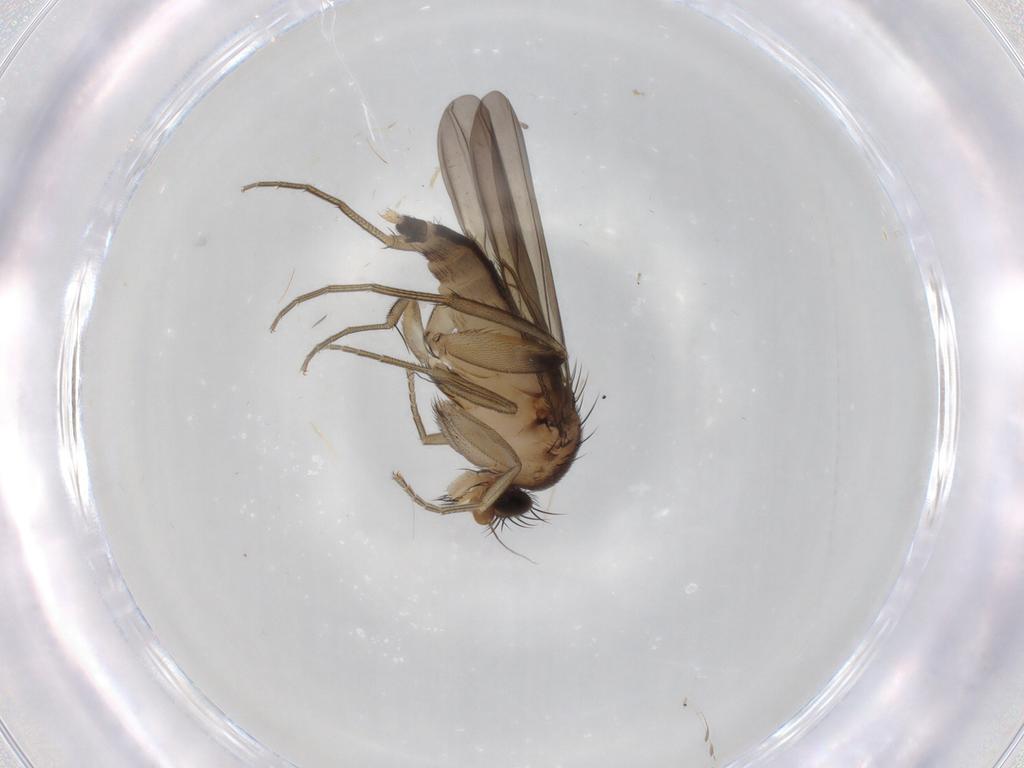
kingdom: Animalia
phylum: Arthropoda
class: Insecta
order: Diptera
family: Phoridae
